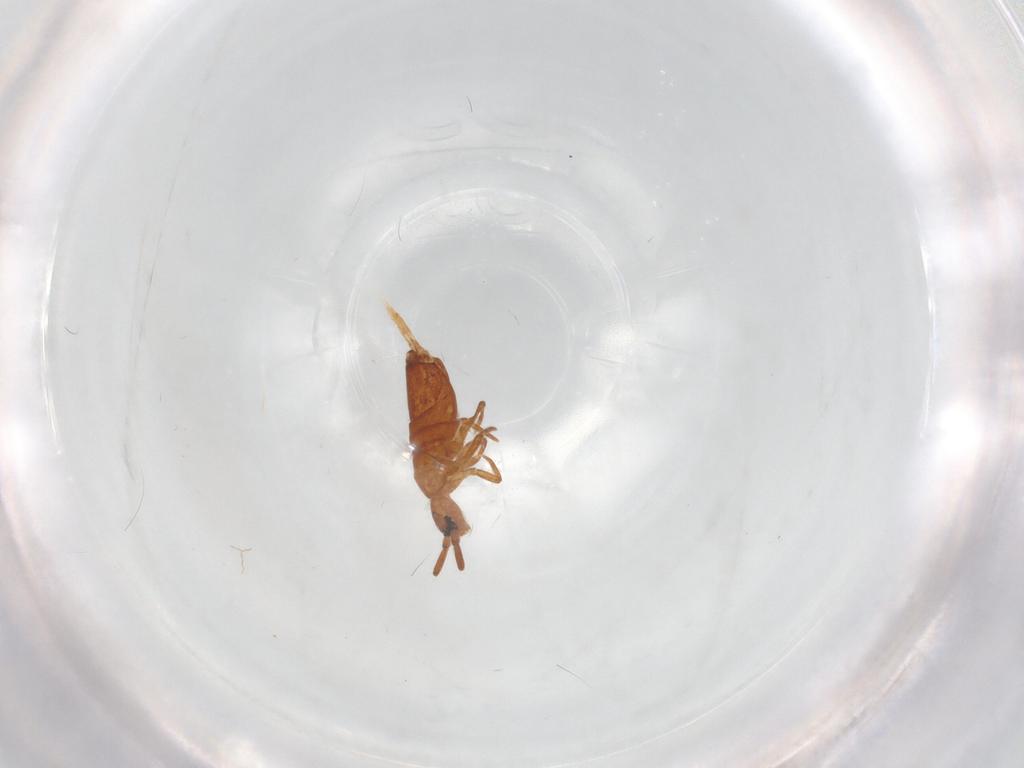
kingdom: Animalia
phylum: Arthropoda
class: Collembola
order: Entomobryomorpha
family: Entomobryidae
